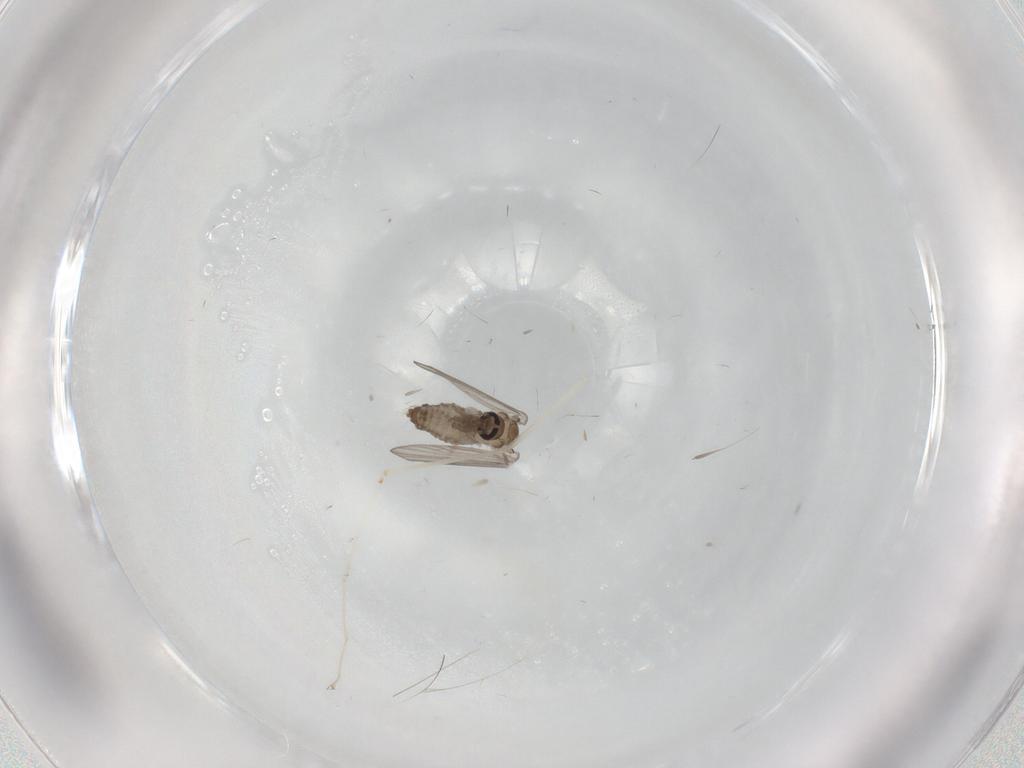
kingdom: Animalia
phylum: Arthropoda
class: Insecta
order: Diptera
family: Psychodidae
